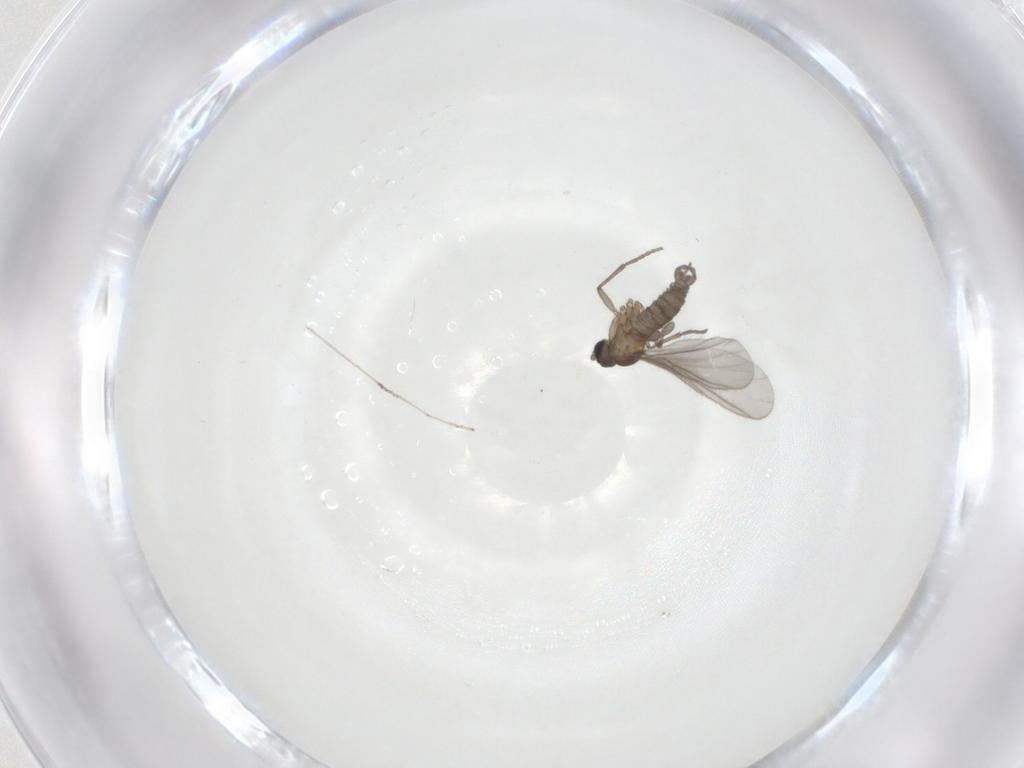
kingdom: Animalia
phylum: Arthropoda
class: Insecta
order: Diptera
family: Sciaridae
